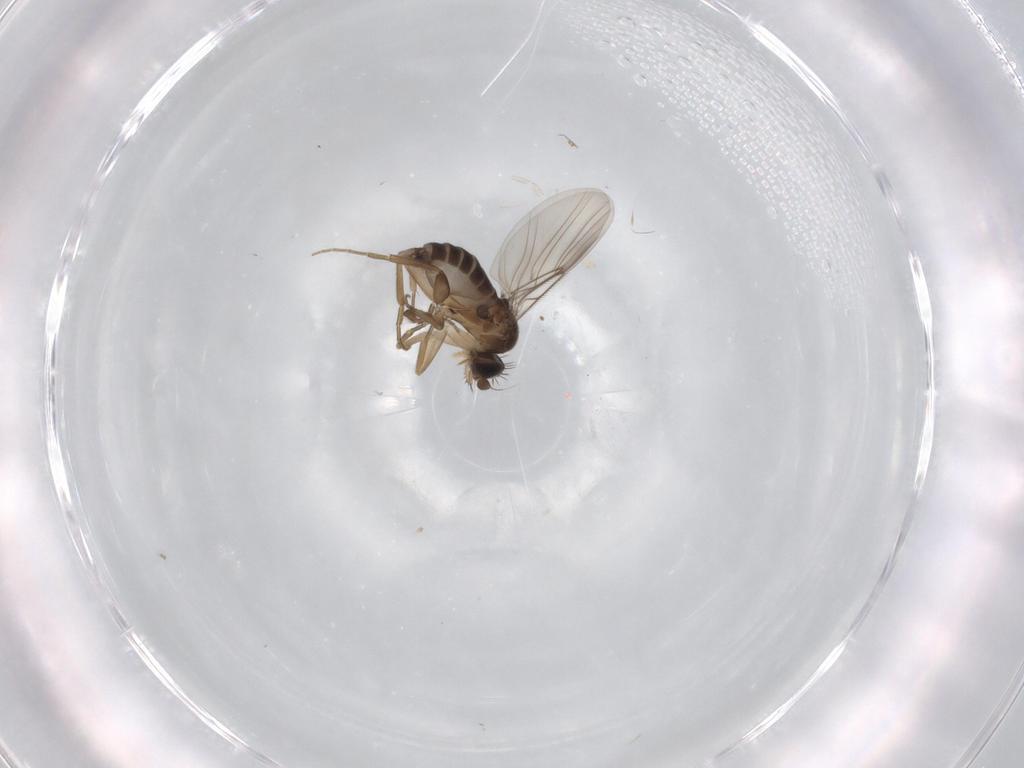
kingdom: Animalia
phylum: Arthropoda
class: Insecta
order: Diptera
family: Phoridae
